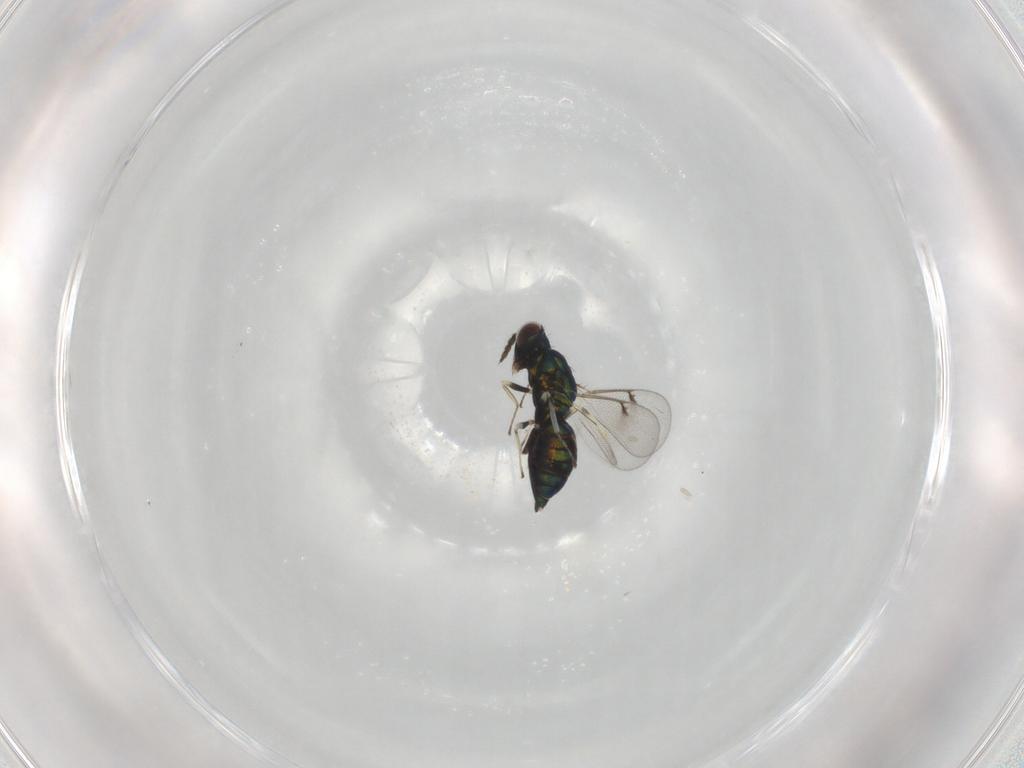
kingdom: Animalia
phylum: Arthropoda
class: Insecta
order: Hymenoptera
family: Eulophidae
